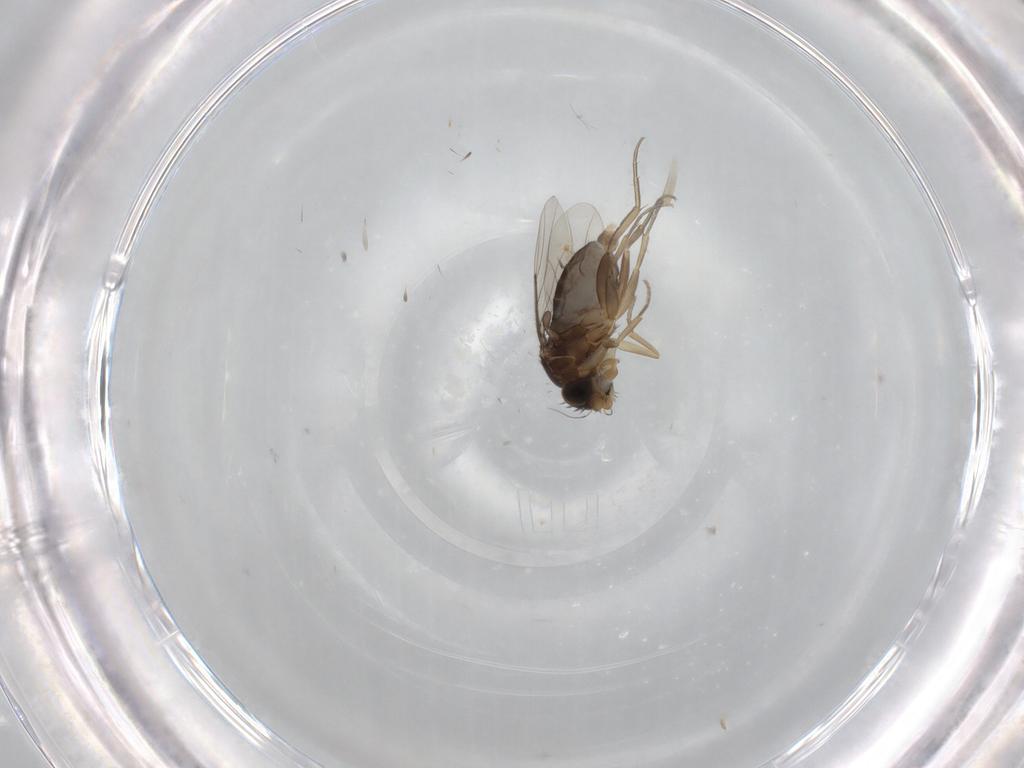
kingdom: Animalia
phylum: Arthropoda
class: Insecta
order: Diptera
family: Phoridae
